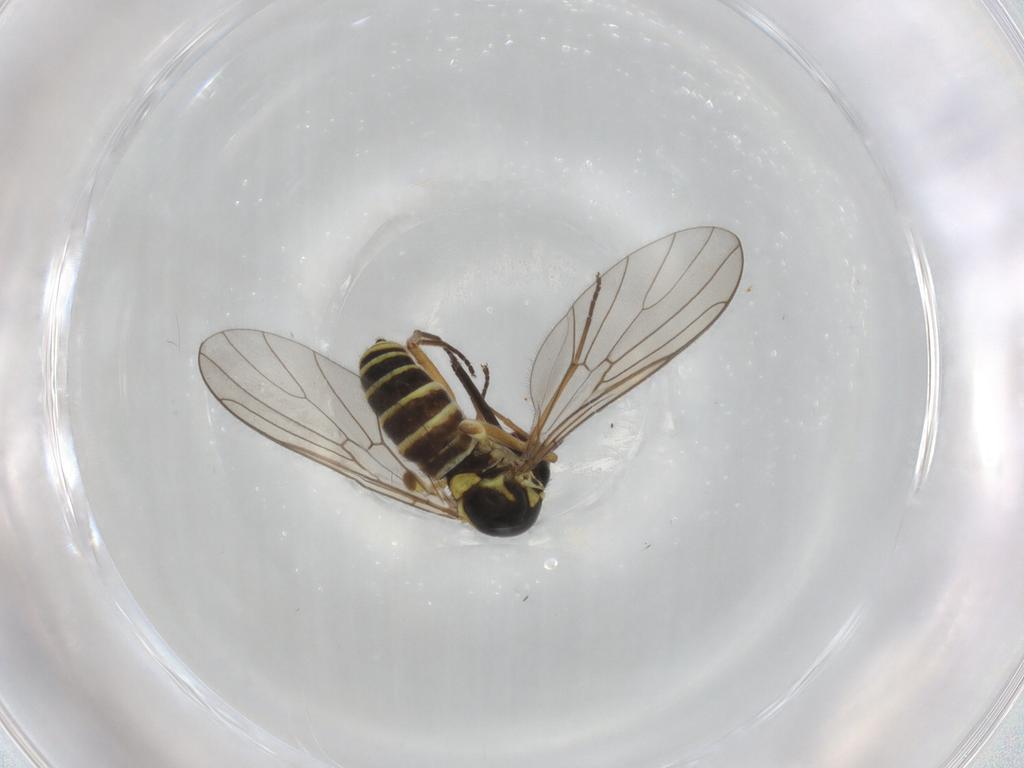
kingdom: Animalia
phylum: Arthropoda
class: Insecta
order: Diptera
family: Mythicomyiidae
